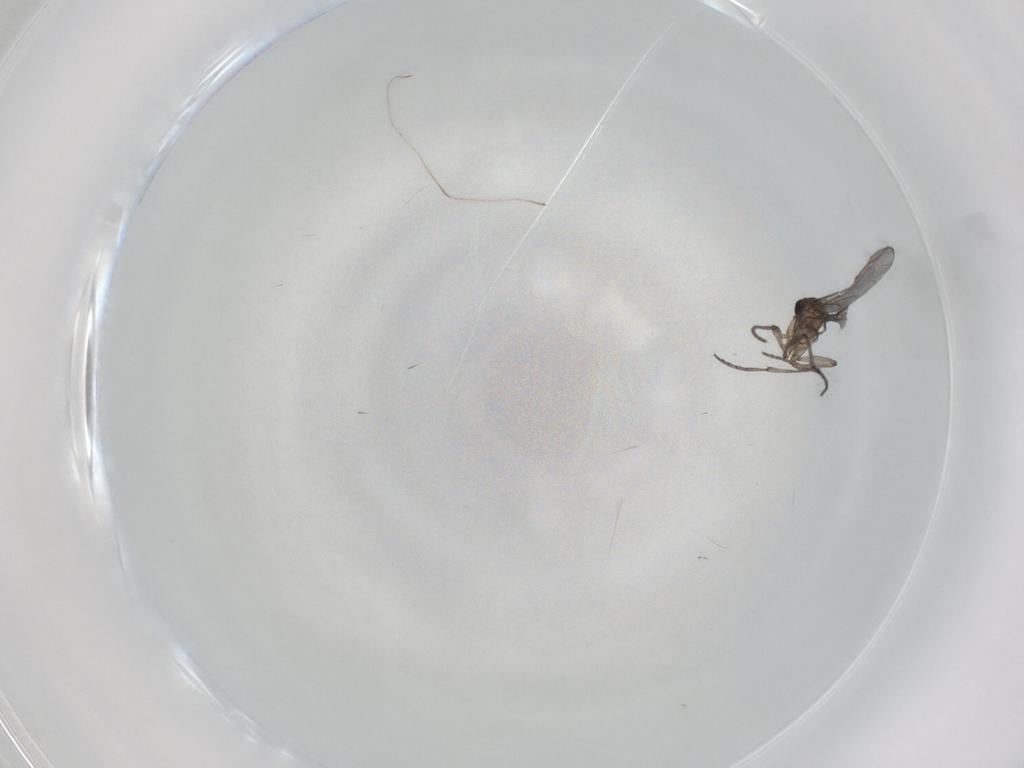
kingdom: Animalia
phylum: Arthropoda
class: Insecta
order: Diptera
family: Sciaridae
